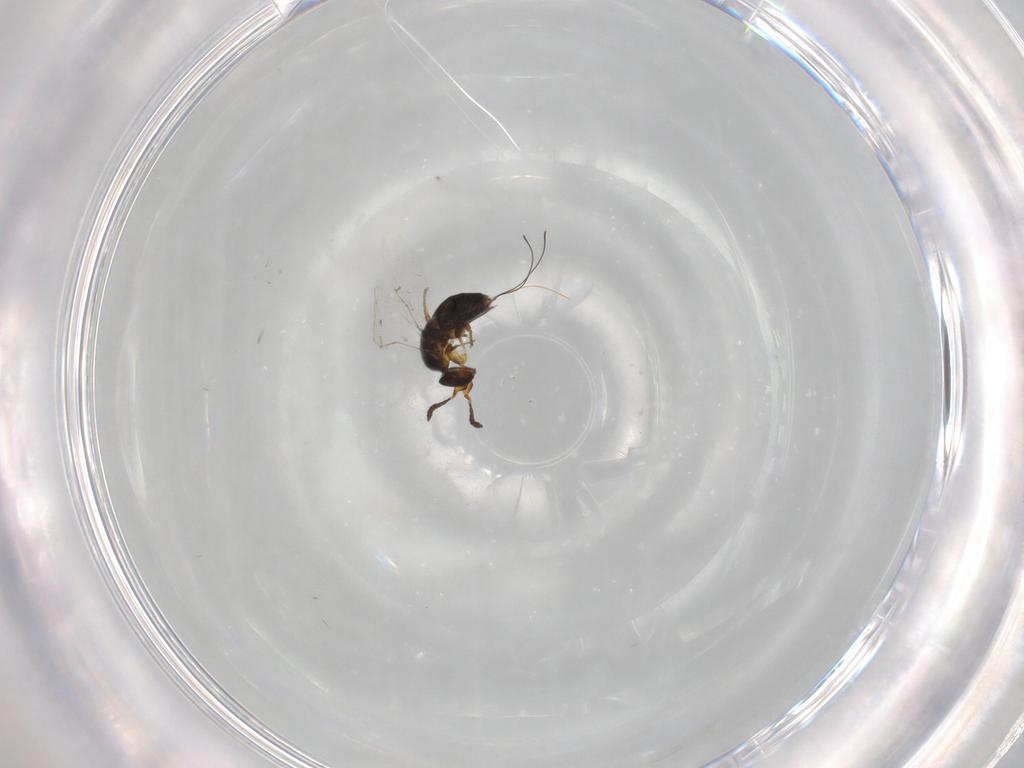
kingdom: Animalia
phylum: Arthropoda
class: Insecta
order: Hymenoptera
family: Agaonidae
